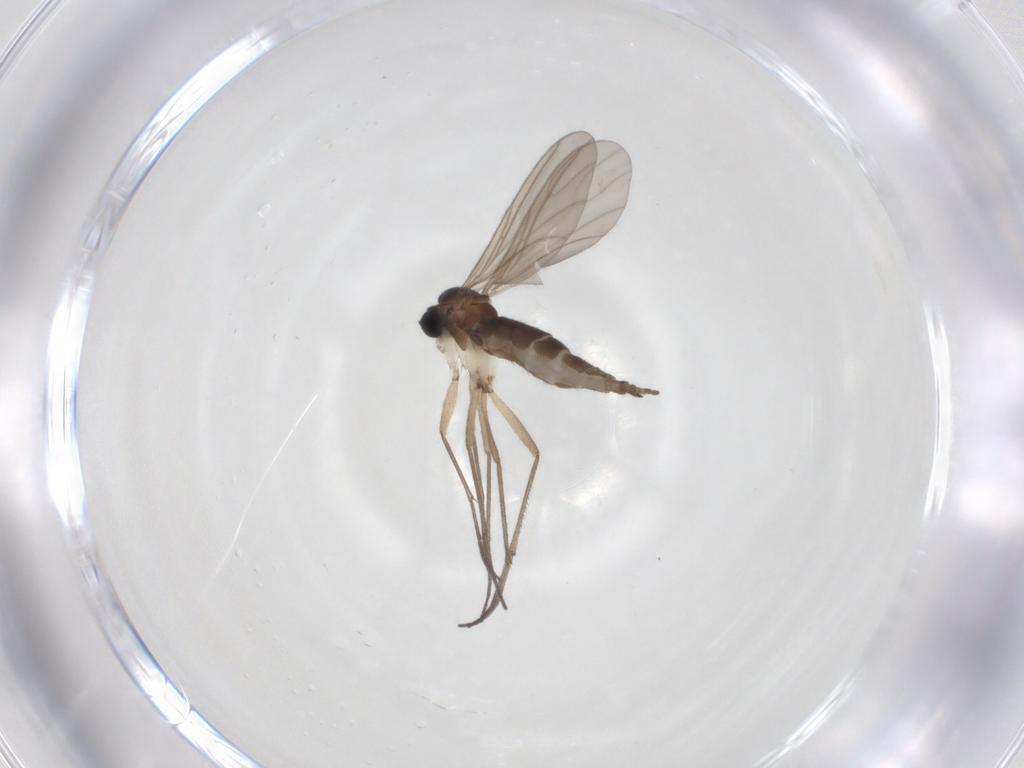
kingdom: Animalia
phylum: Arthropoda
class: Insecta
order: Diptera
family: Sciaridae
